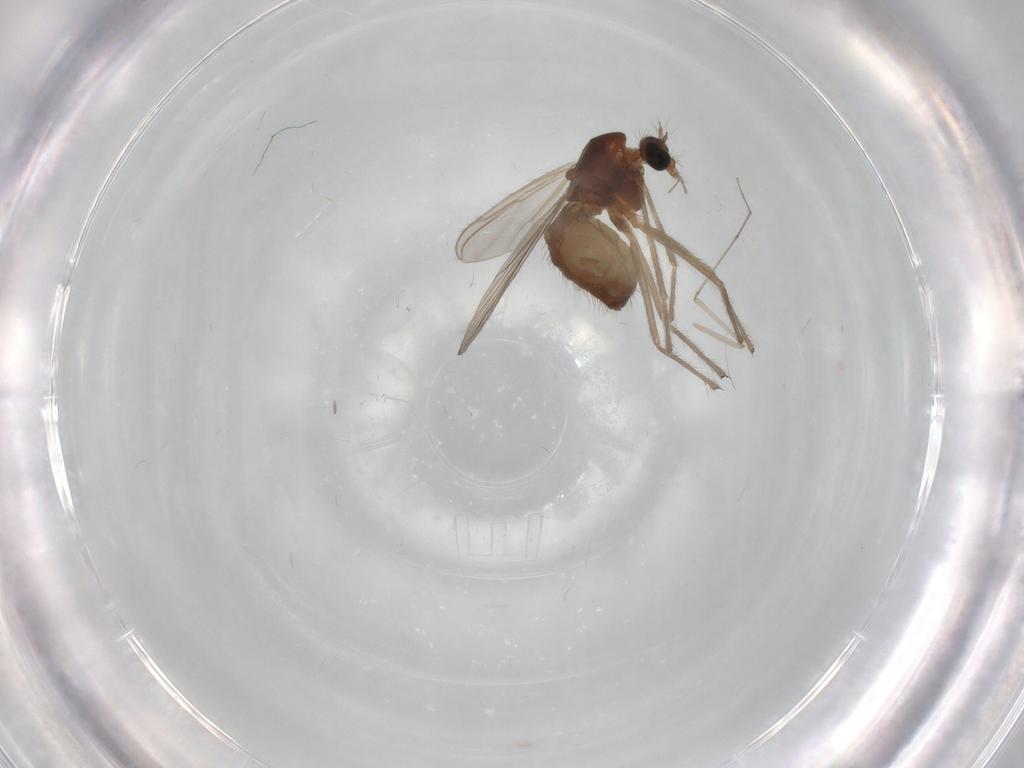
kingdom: Animalia
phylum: Arthropoda
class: Insecta
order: Diptera
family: Chironomidae
